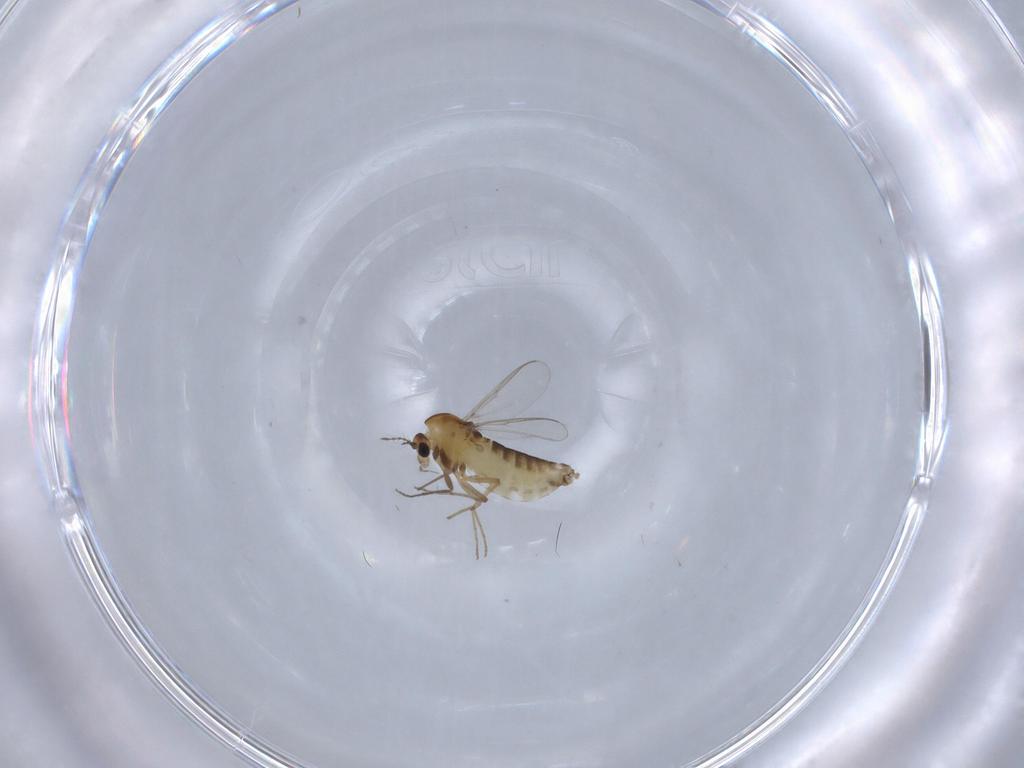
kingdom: Animalia
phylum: Arthropoda
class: Insecta
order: Diptera
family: Chironomidae
